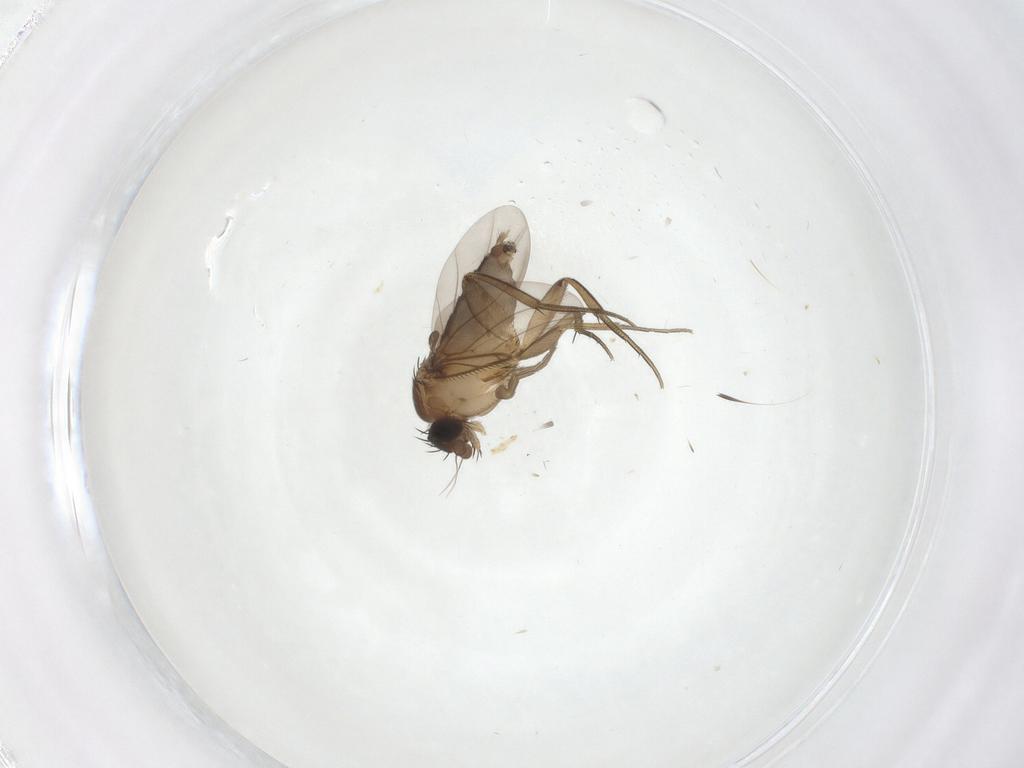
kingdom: Animalia
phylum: Arthropoda
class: Insecta
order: Diptera
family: Phoridae
